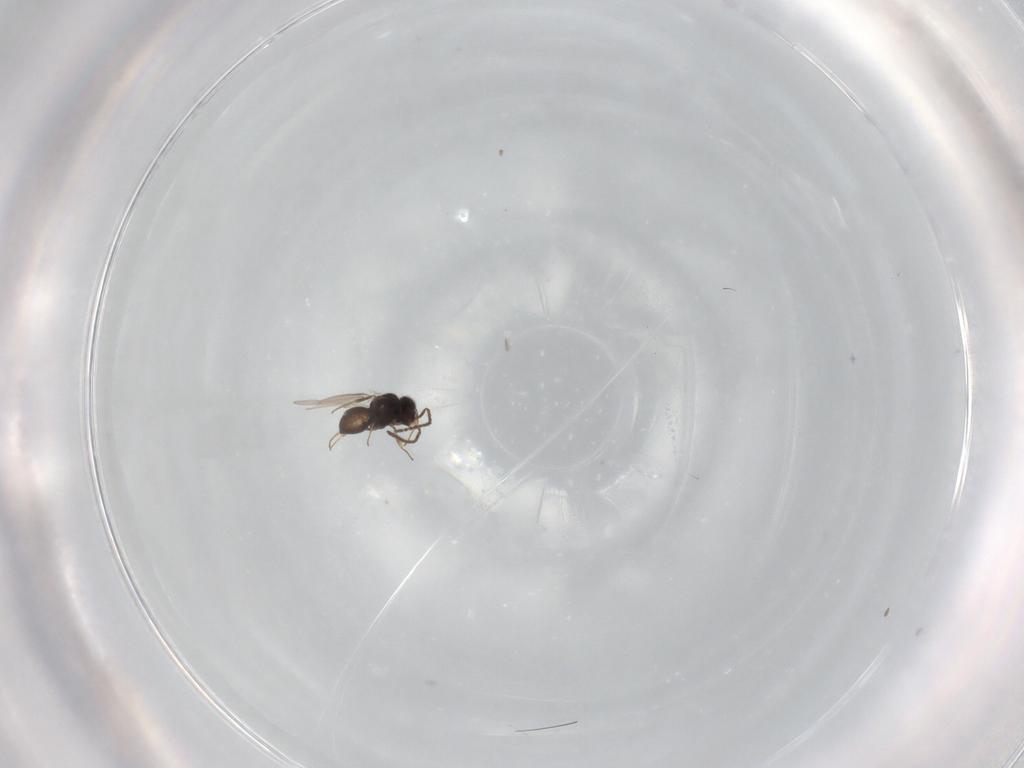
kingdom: Animalia
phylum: Arthropoda
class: Insecta
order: Hymenoptera
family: Scelionidae
